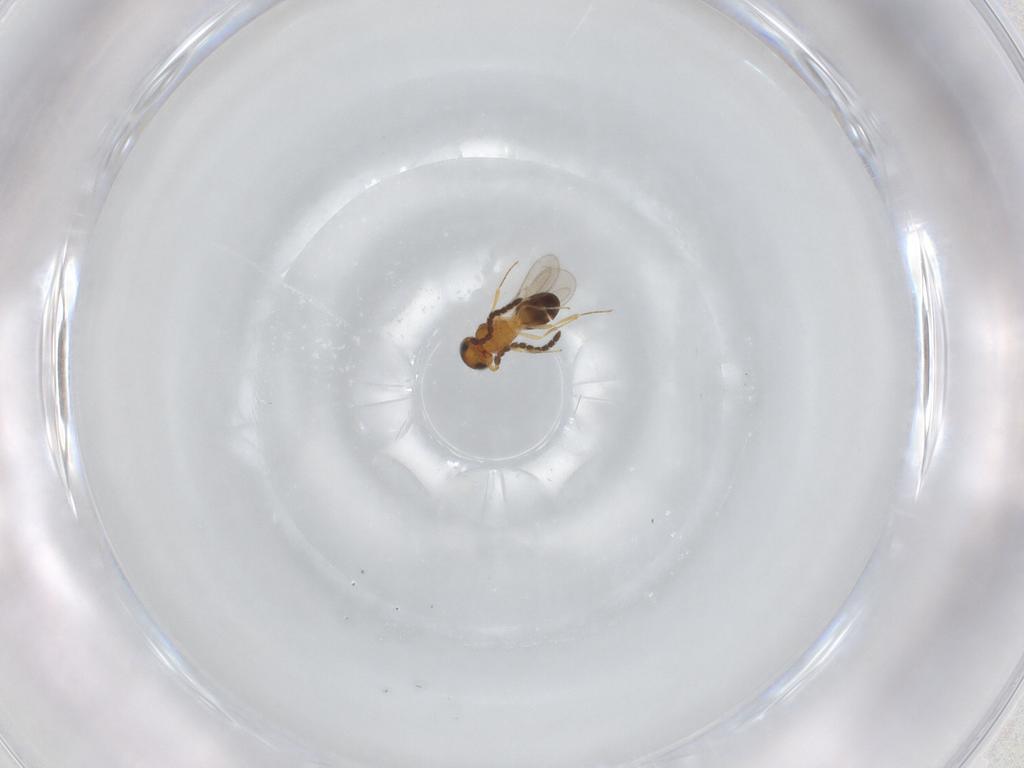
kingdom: Animalia
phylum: Arthropoda
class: Insecta
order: Hymenoptera
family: Scelionidae
